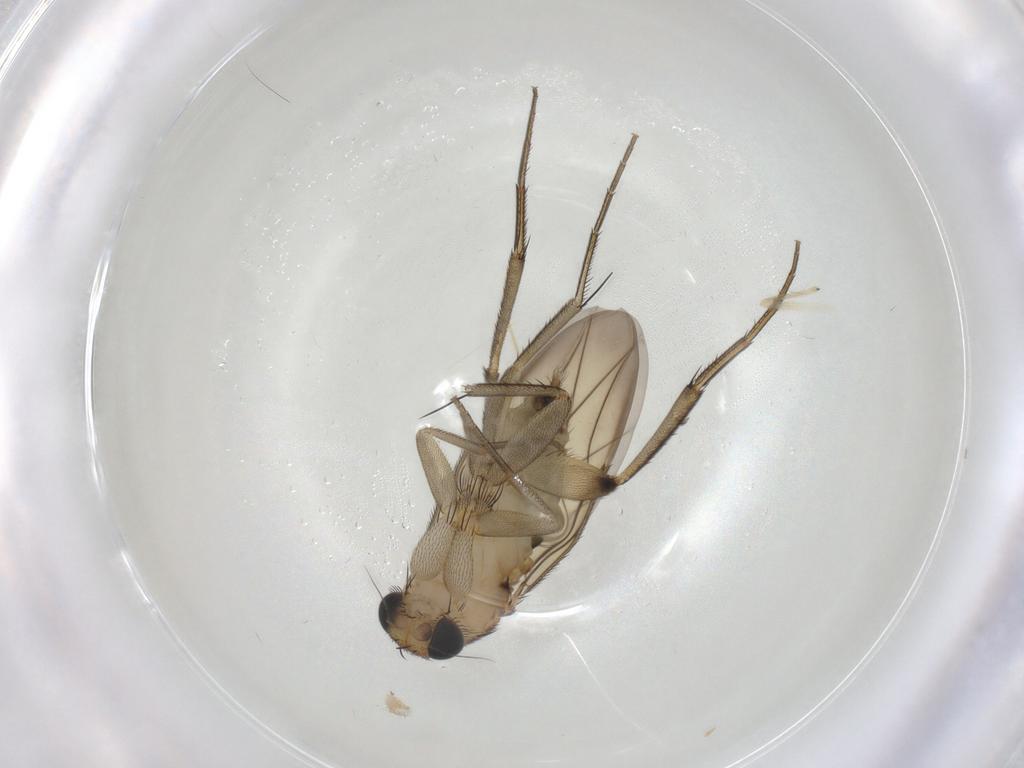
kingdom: Animalia
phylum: Arthropoda
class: Insecta
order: Diptera
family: Phoridae
